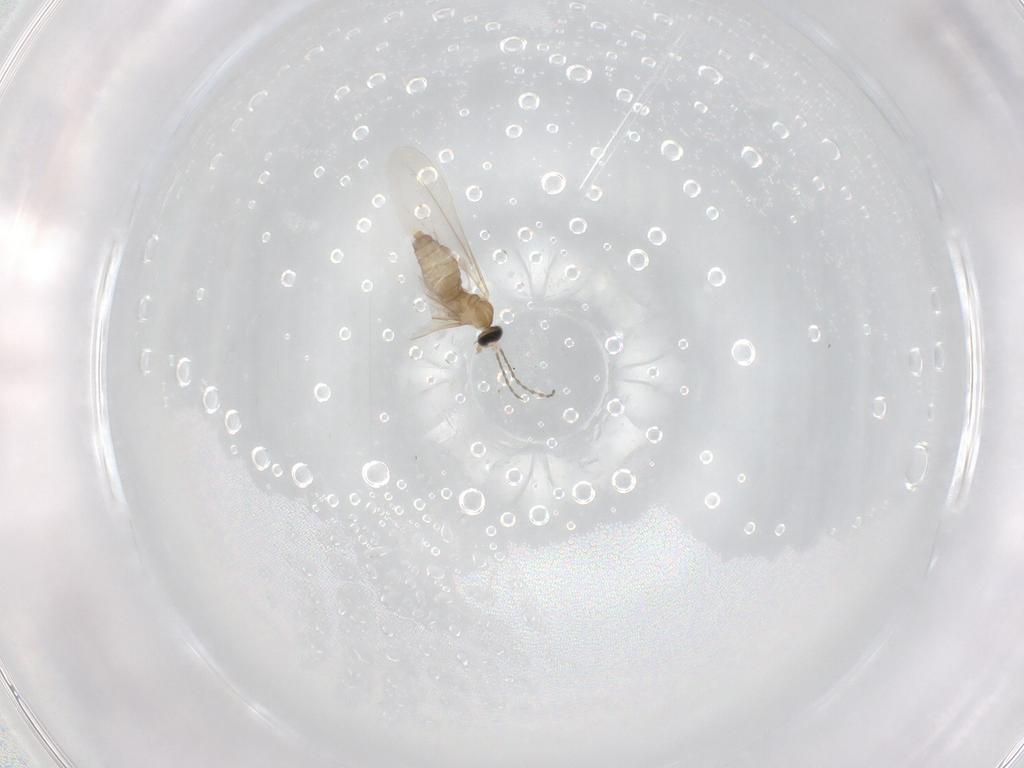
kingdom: Animalia
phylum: Arthropoda
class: Insecta
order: Diptera
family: Cecidomyiidae
